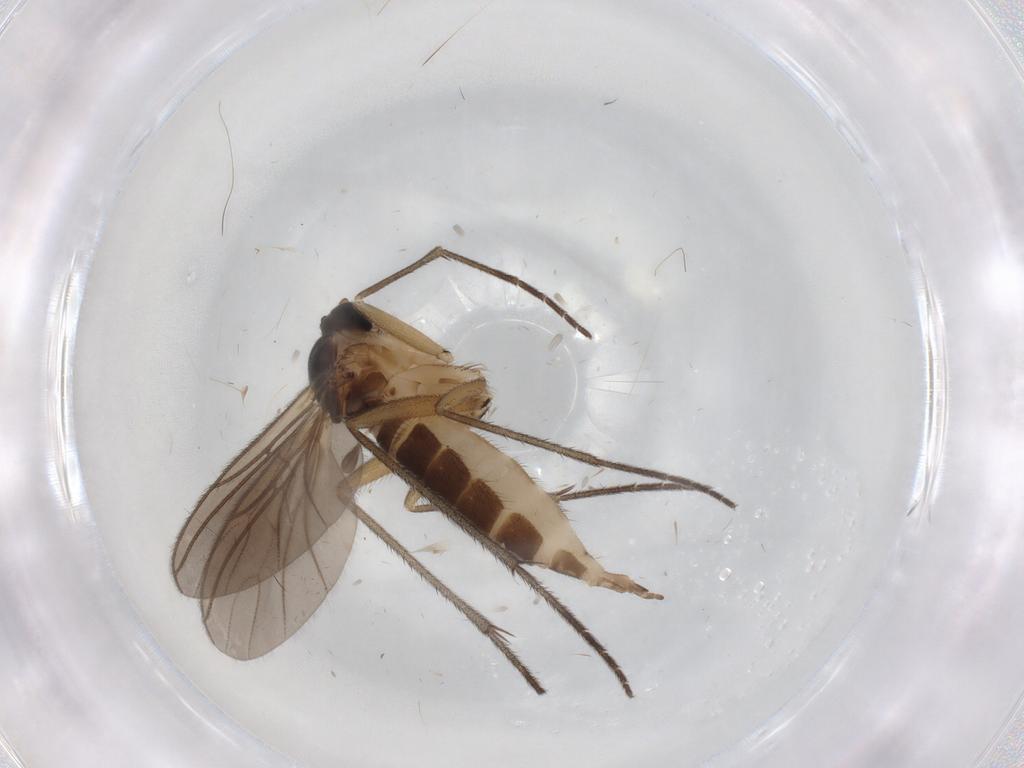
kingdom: Animalia
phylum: Arthropoda
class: Insecta
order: Diptera
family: Sciaridae
